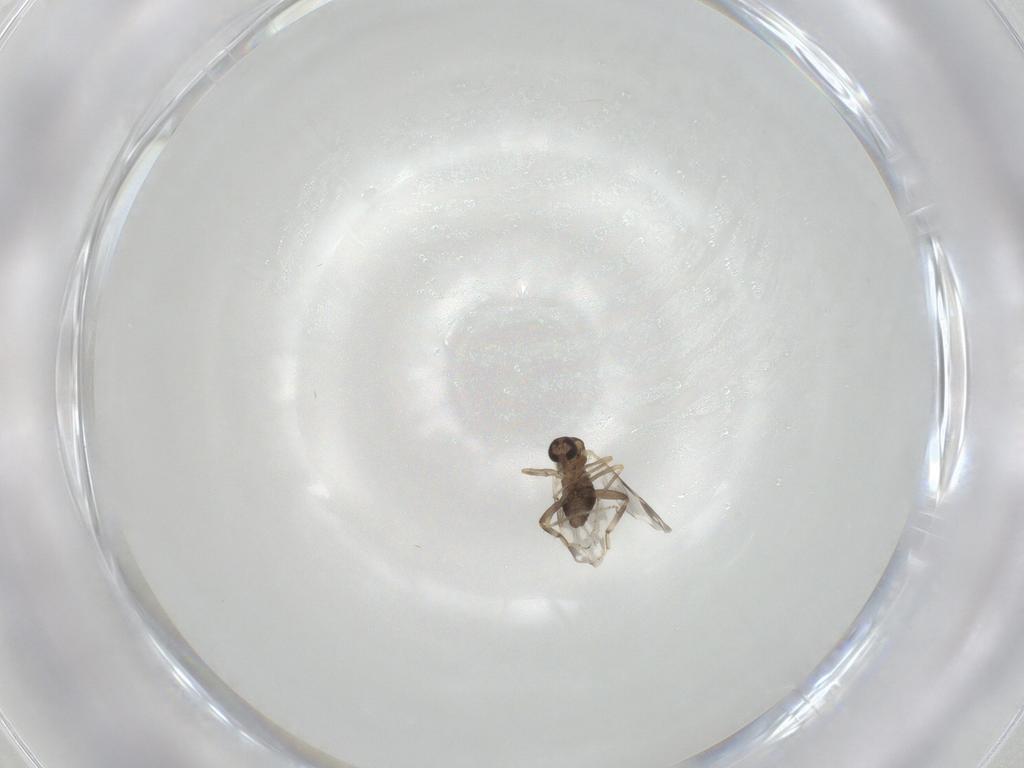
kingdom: Animalia
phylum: Arthropoda
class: Insecta
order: Diptera
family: Ceratopogonidae
